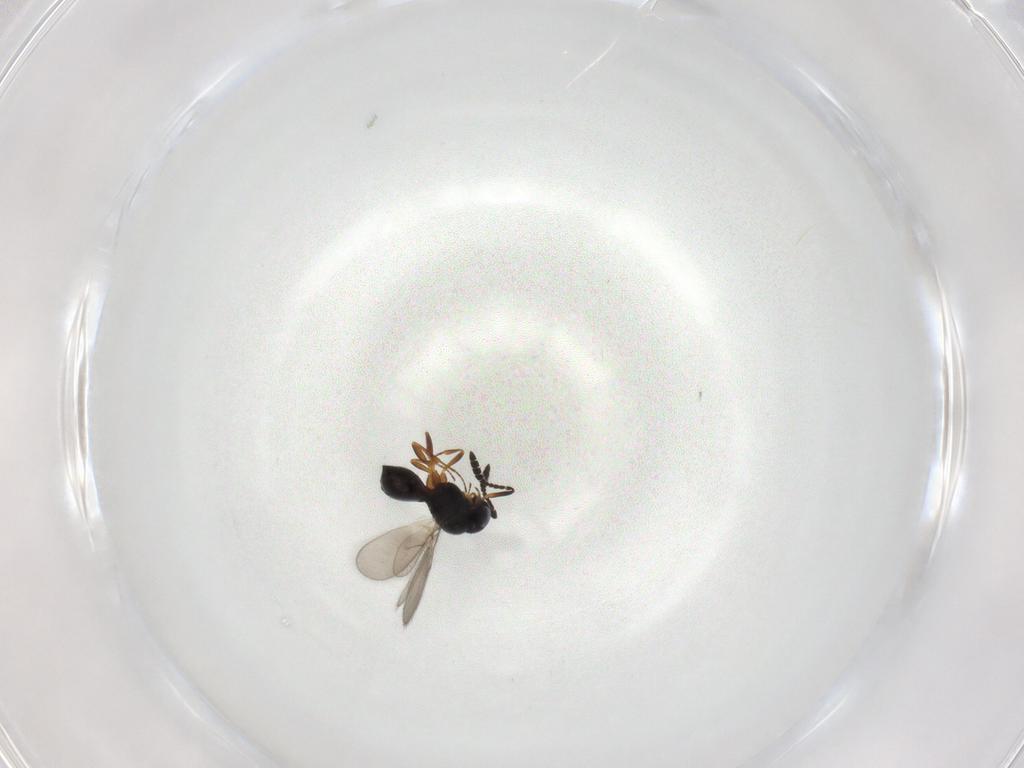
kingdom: Animalia
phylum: Arthropoda
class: Insecta
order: Hymenoptera
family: Scelionidae
